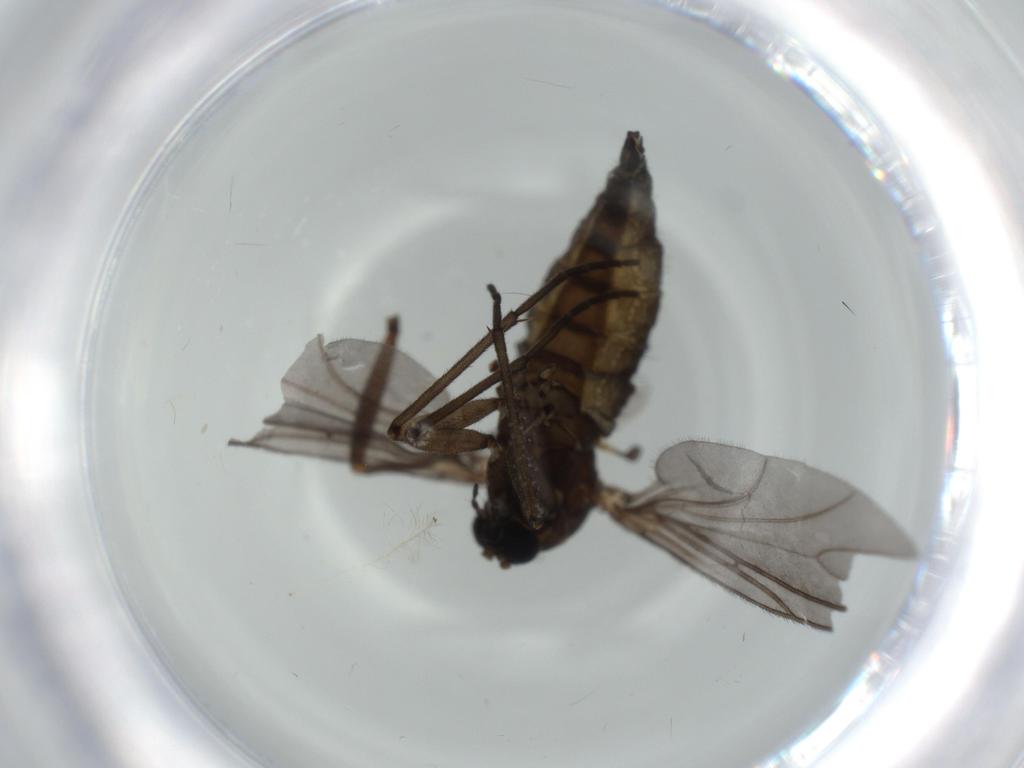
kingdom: Animalia
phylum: Arthropoda
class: Insecta
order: Diptera
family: Sciaridae
